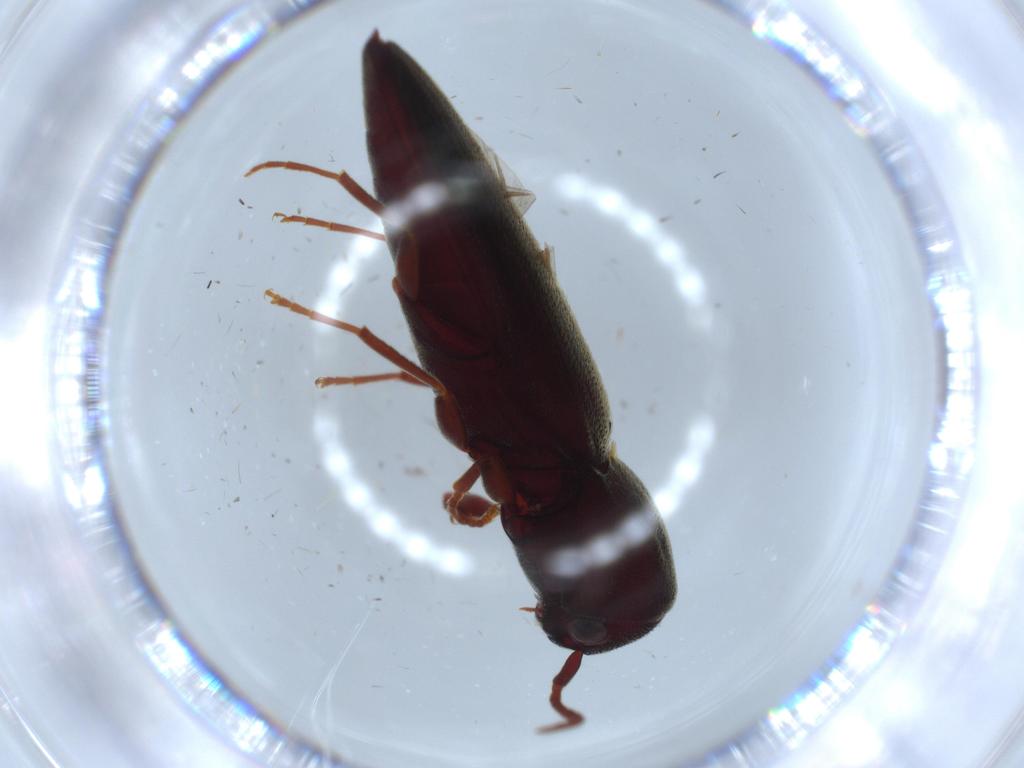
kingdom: Animalia
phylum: Arthropoda
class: Insecta
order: Coleoptera
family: Eucnemidae
